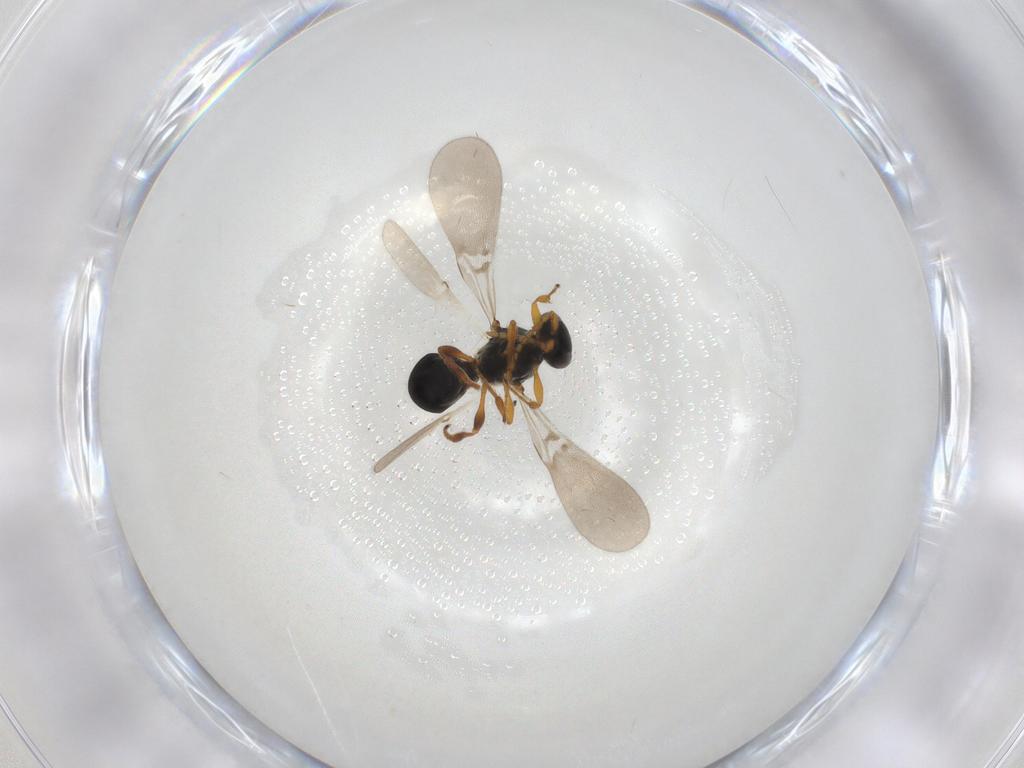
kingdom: Animalia
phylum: Arthropoda
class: Insecta
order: Hymenoptera
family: Platygastridae
